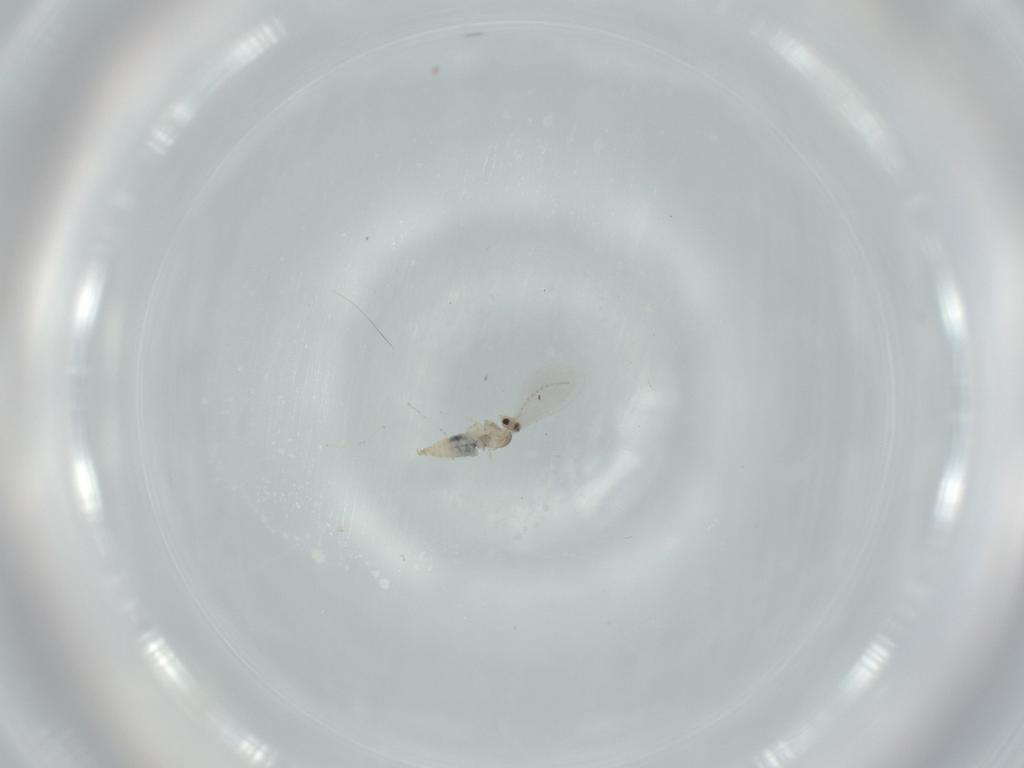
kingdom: Animalia
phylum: Arthropoda
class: Insecta
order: Diptera
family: Cecidomyiidae
